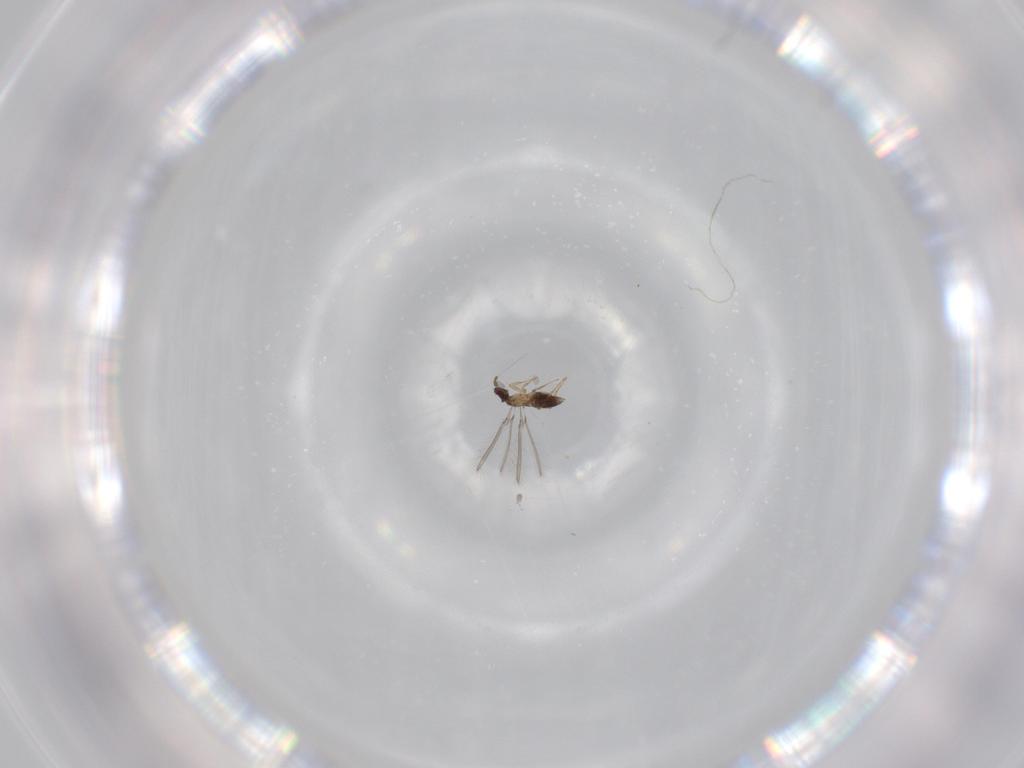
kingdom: Animalia
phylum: Arthropoda
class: Insecta
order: Hymenoptera
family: Mymaridae
